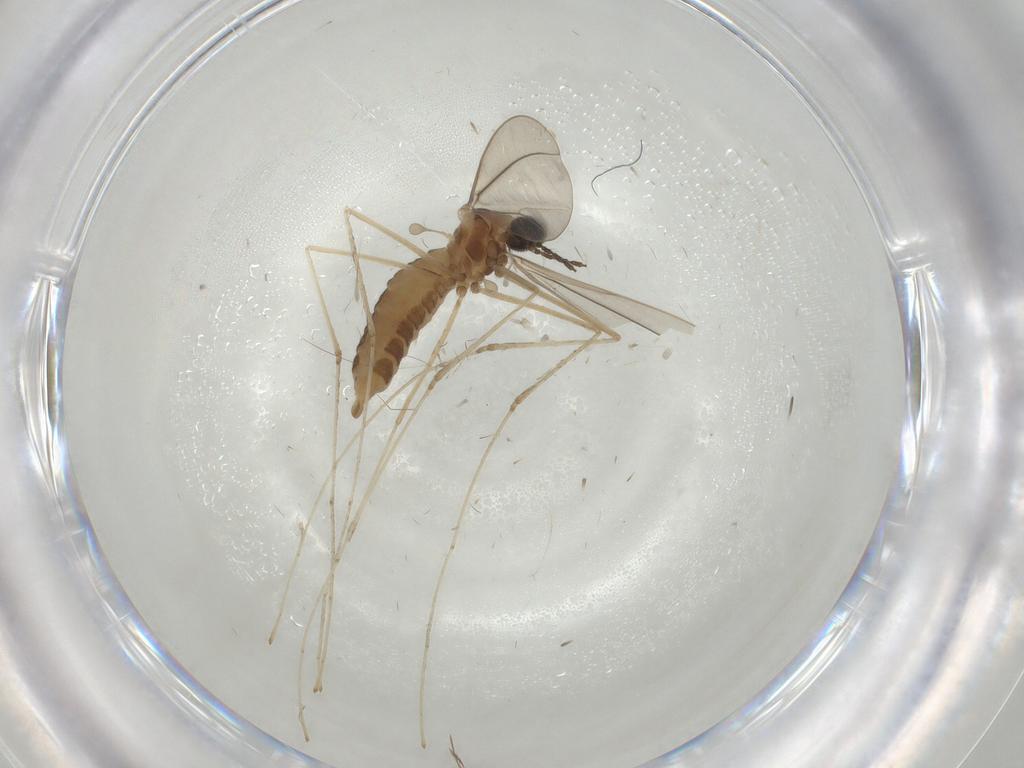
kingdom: Animalia
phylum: Arthropoda
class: Insecta
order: Diptera
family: Cecidomyiidae
